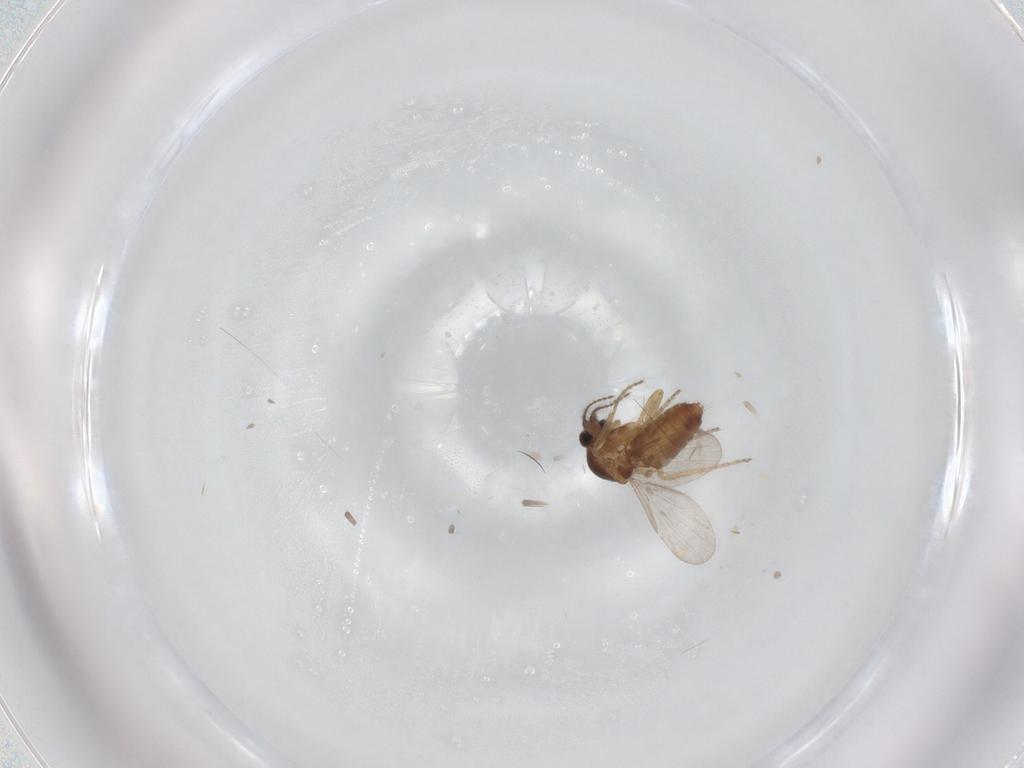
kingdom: Animalia
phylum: Arthropoda
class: Insecta
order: Diptera
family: Ceratopogonidae
